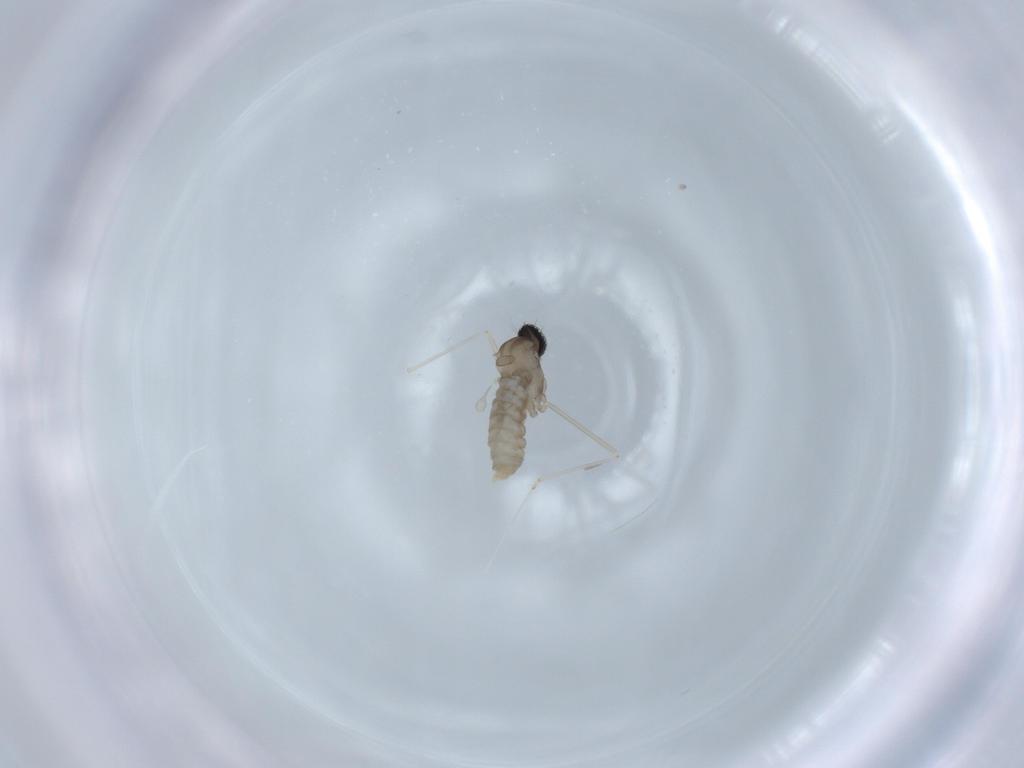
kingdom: Animalia
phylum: Arthropoda
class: Insecta
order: Diptera
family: Cecidomyiidae
